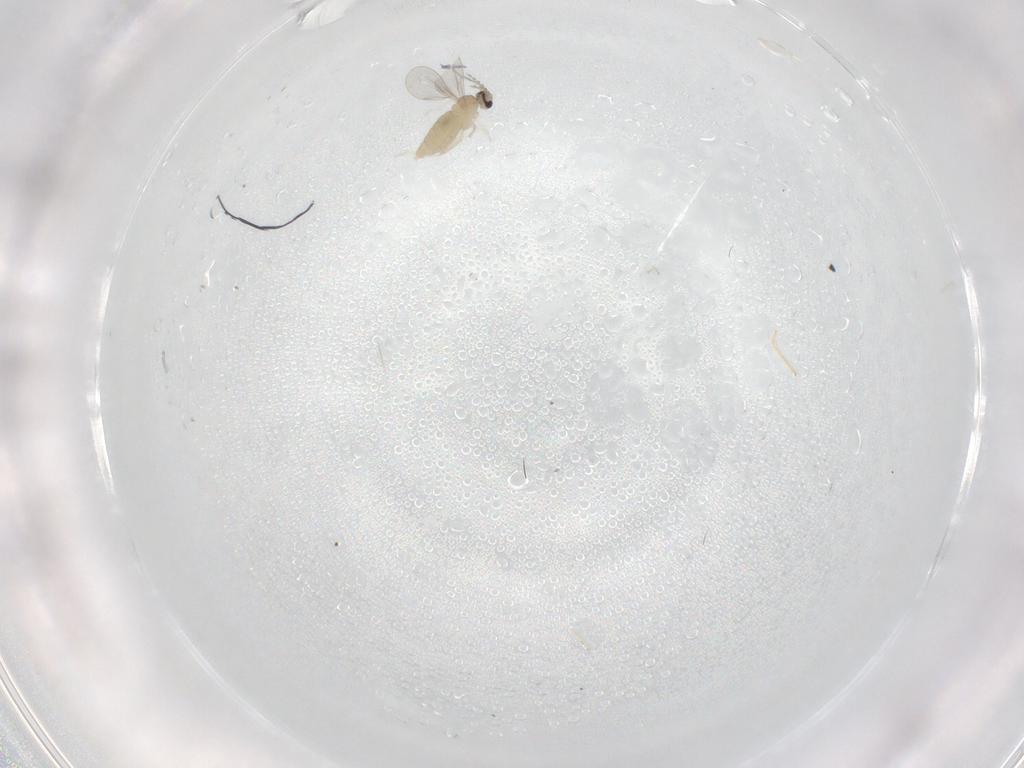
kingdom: Animalia
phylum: Arthropoda
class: Insecta
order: Diptera
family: Cecidomyiidae
